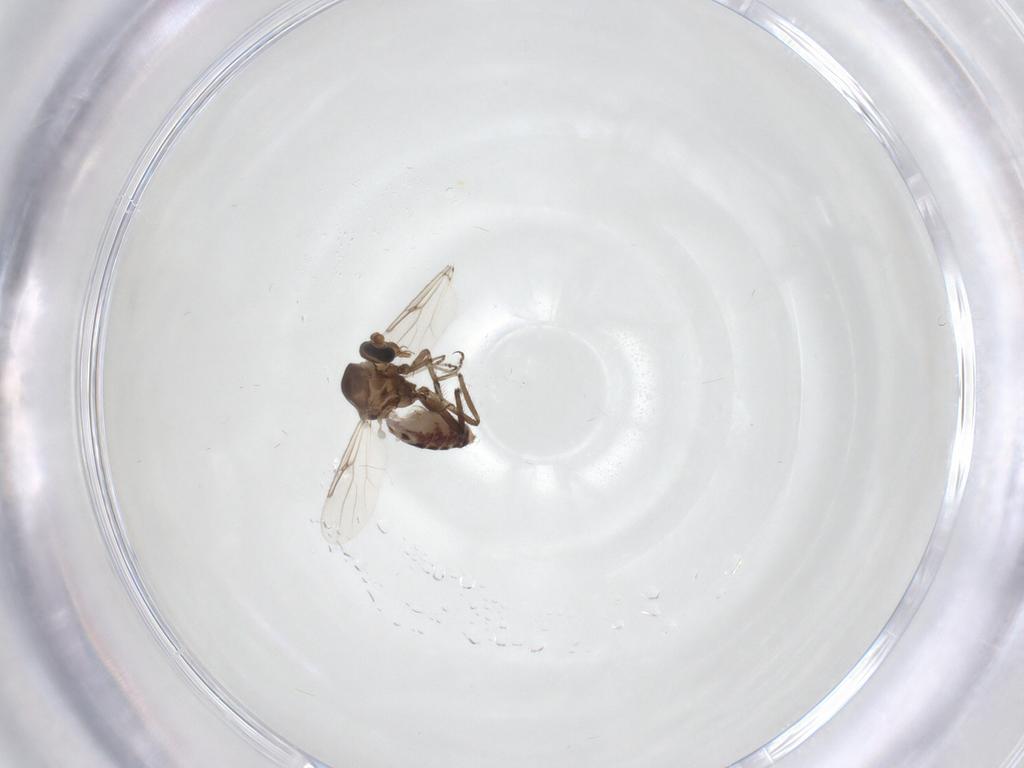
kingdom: Animalia
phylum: Arthropoda
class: Insecta
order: Diptera
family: Ceratopogonidae
